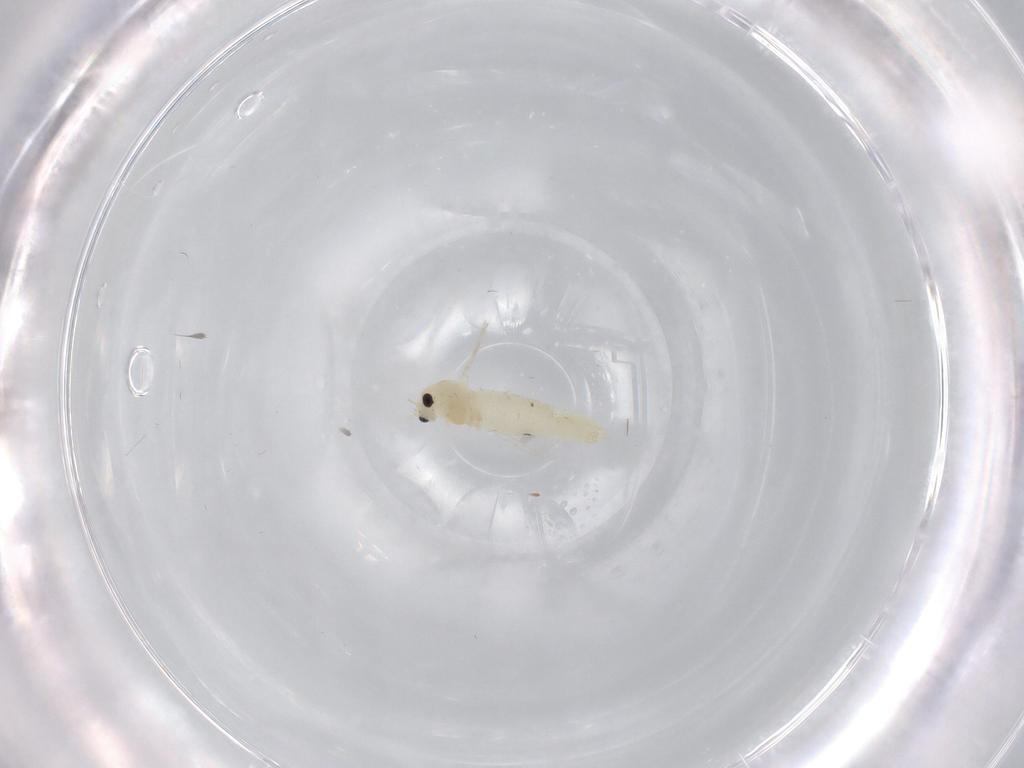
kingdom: Animalia
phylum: Arthropoda
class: Insecta
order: Diptera
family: Chironomidae
